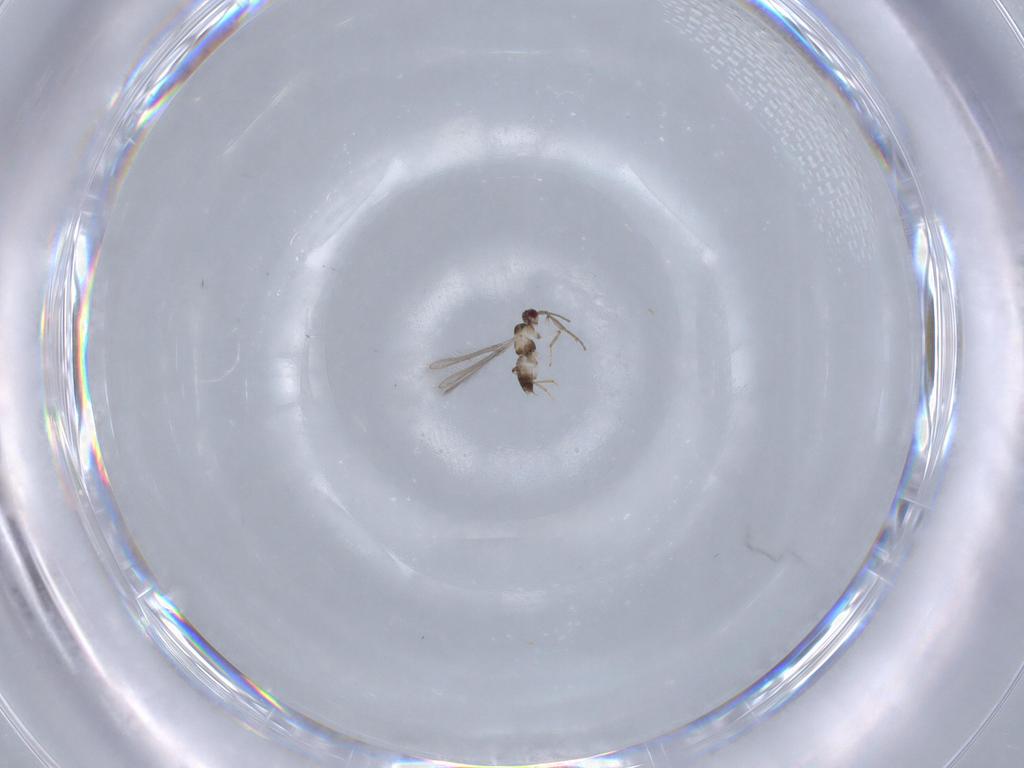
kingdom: Animalia
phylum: Arthropoda
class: Insecta
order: Hymenoptera
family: Mymaridae
